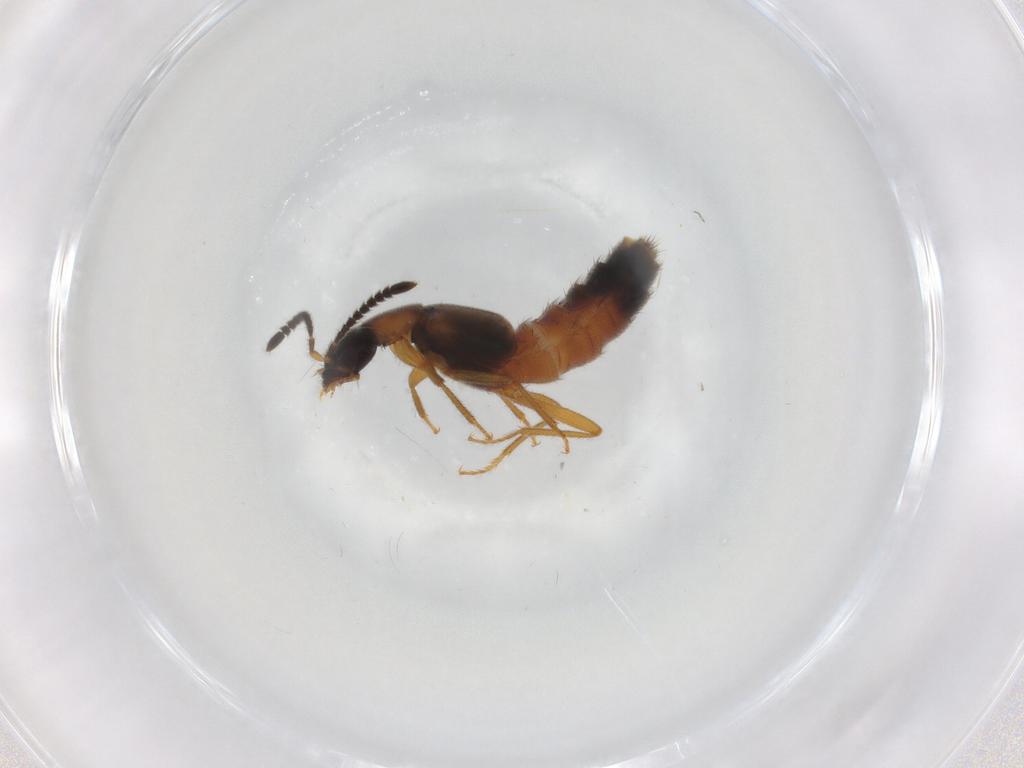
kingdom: Animalia
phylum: Arthropoda
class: Insecta
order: Coleoptera
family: Staphylinidae
